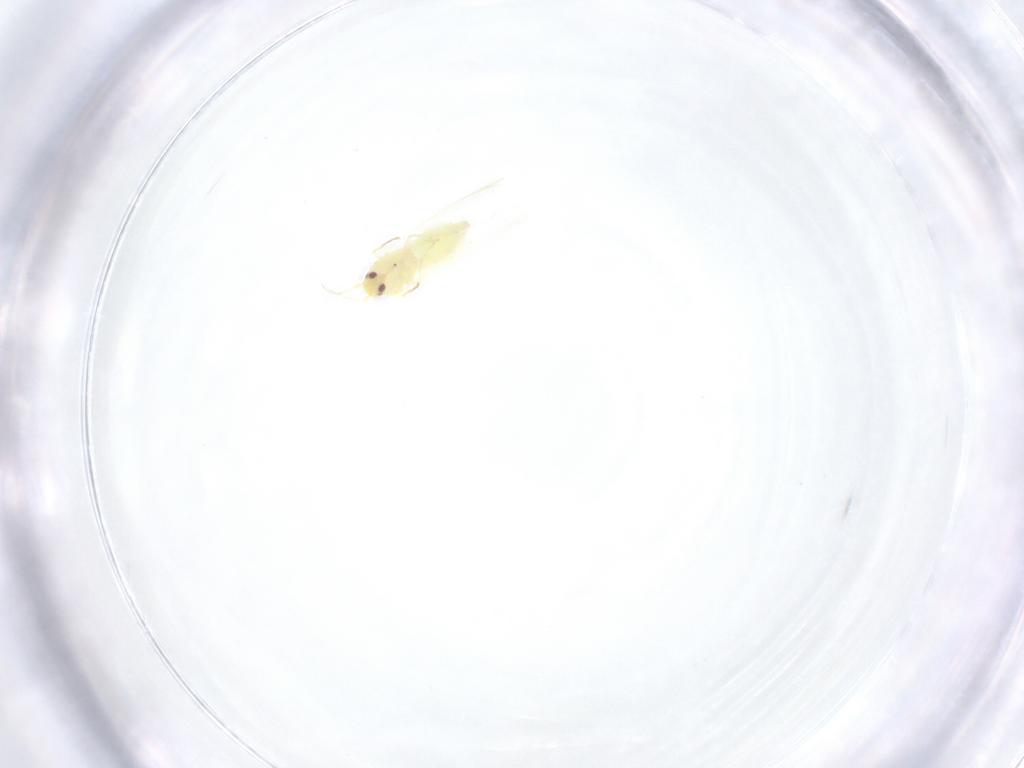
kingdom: Animalia
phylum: Arthropoda
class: Insecta
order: Hemiptera
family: Aleyrodidae
